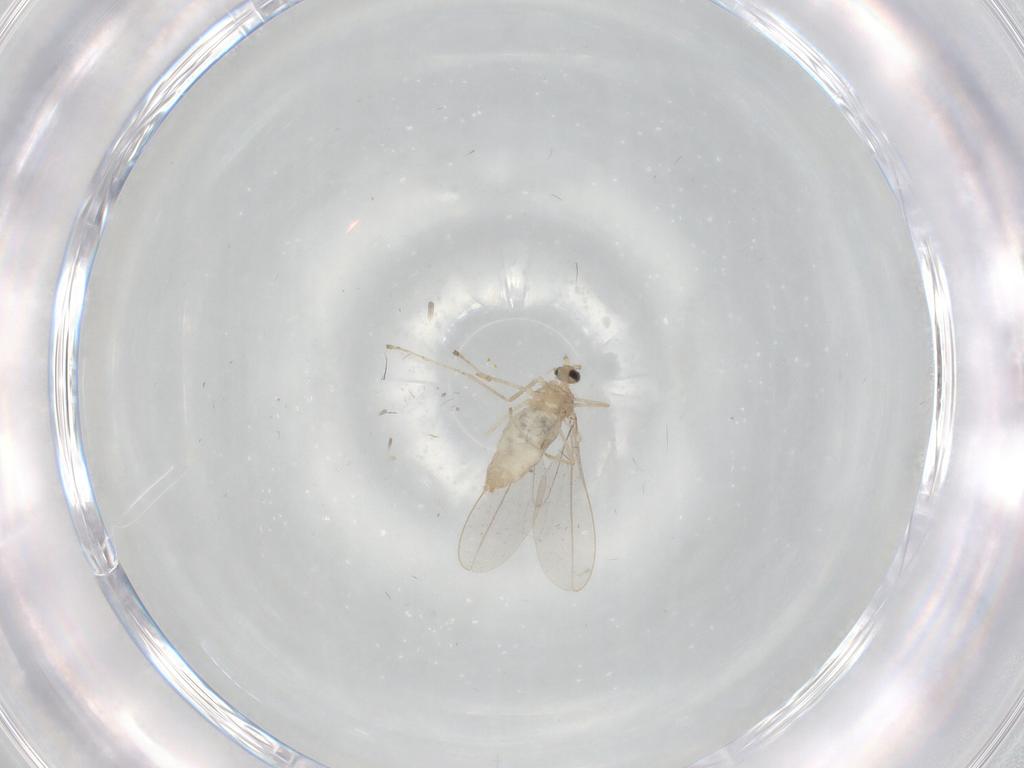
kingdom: Animalia
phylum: Arthropoda
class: Insecta
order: Diptera
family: Cecidomyiidae
